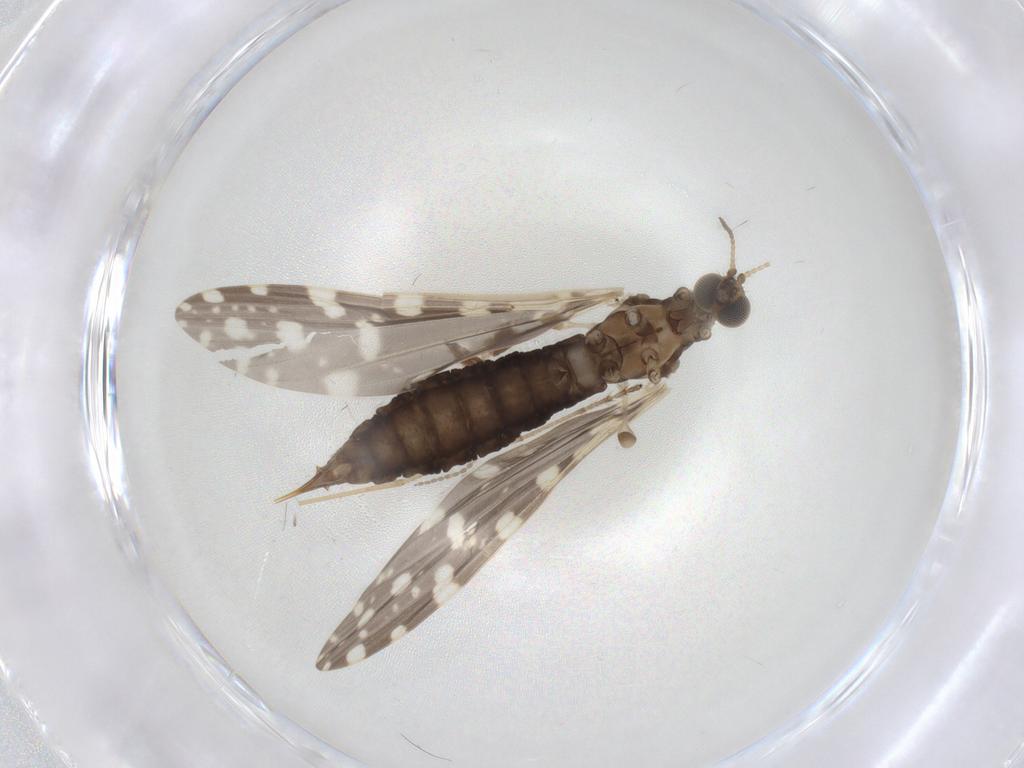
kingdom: Animalia
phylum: Arthropoda
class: Insecta
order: Diptera
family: Limoniidae
